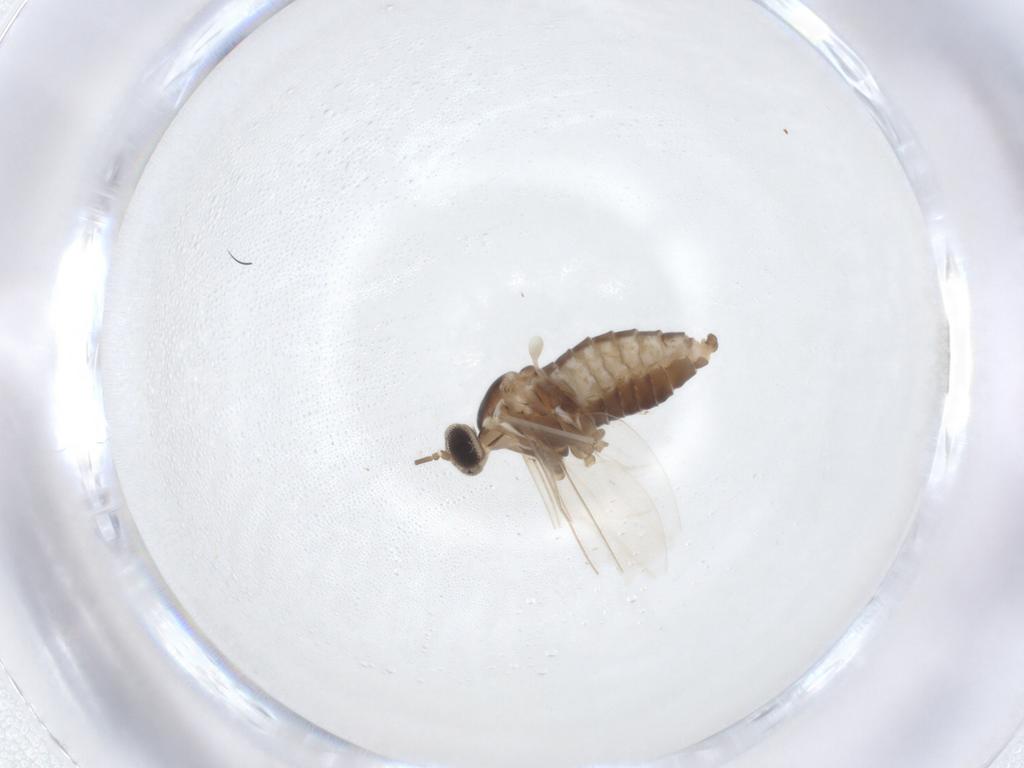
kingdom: Animalia
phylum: Arthropoda
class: Insecta
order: Diptera
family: Cecidomyiidae
